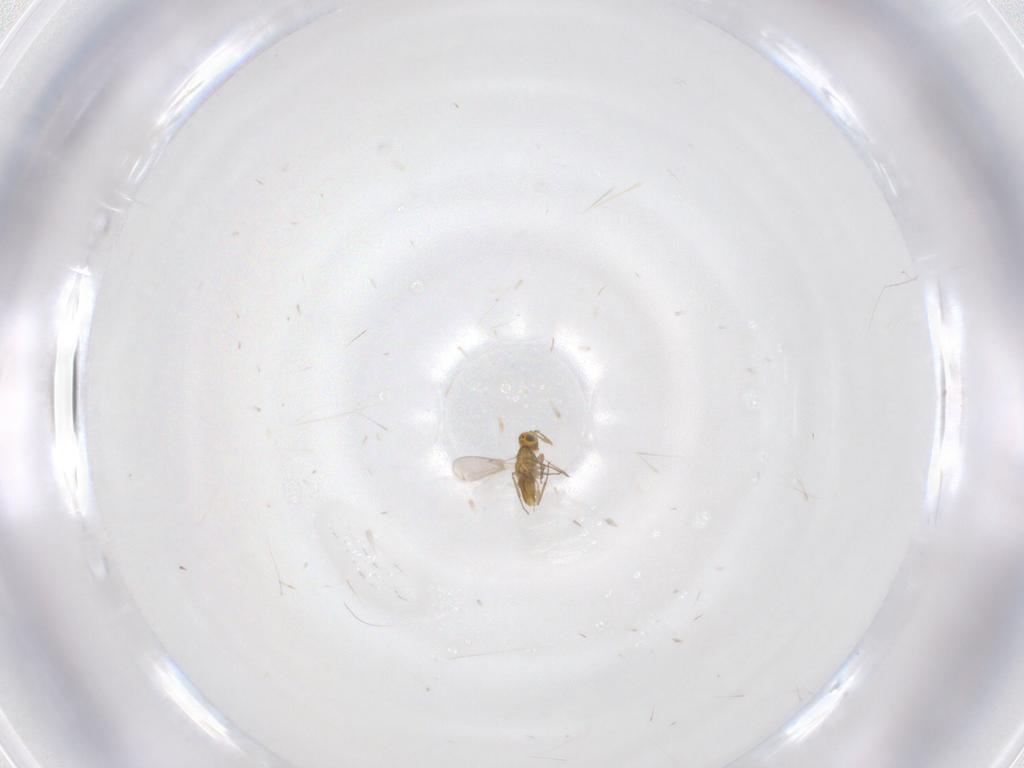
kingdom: Animalia
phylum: Arthropoda
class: Insecta
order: Hymenoptera
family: Aphelinidae
